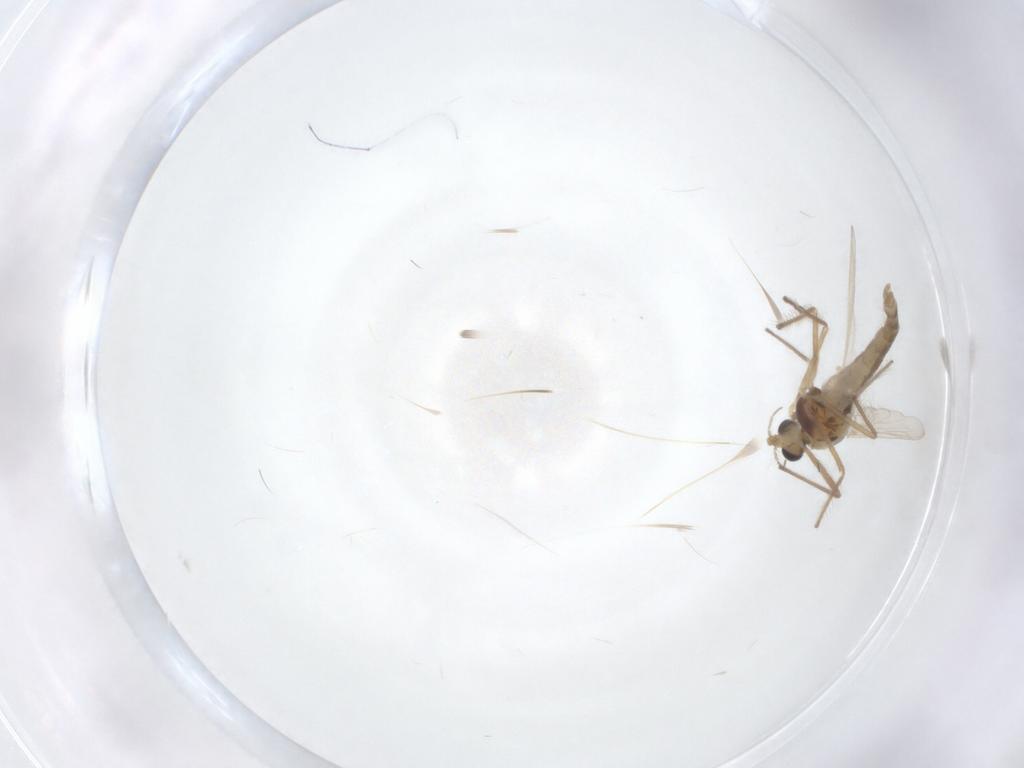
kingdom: Animalia
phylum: Arthropoda
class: Insecta
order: Diptera
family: Chironomidae
